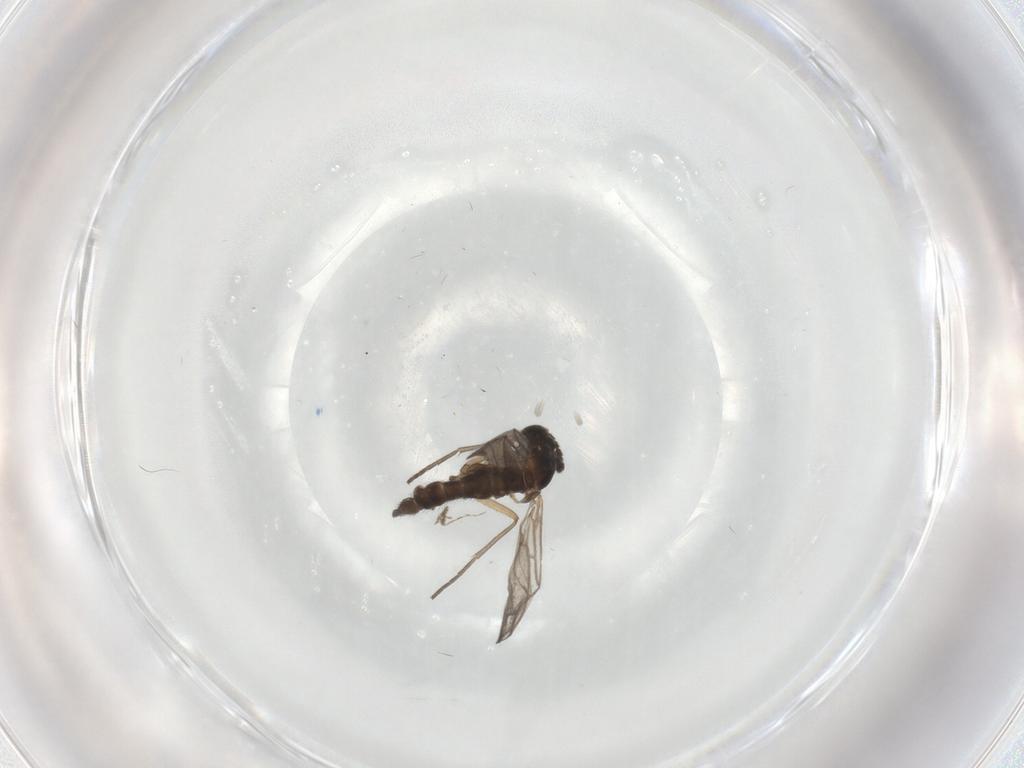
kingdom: Animalia
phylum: Arthropoda
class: Insecta
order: Diptera
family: Sciaridae
